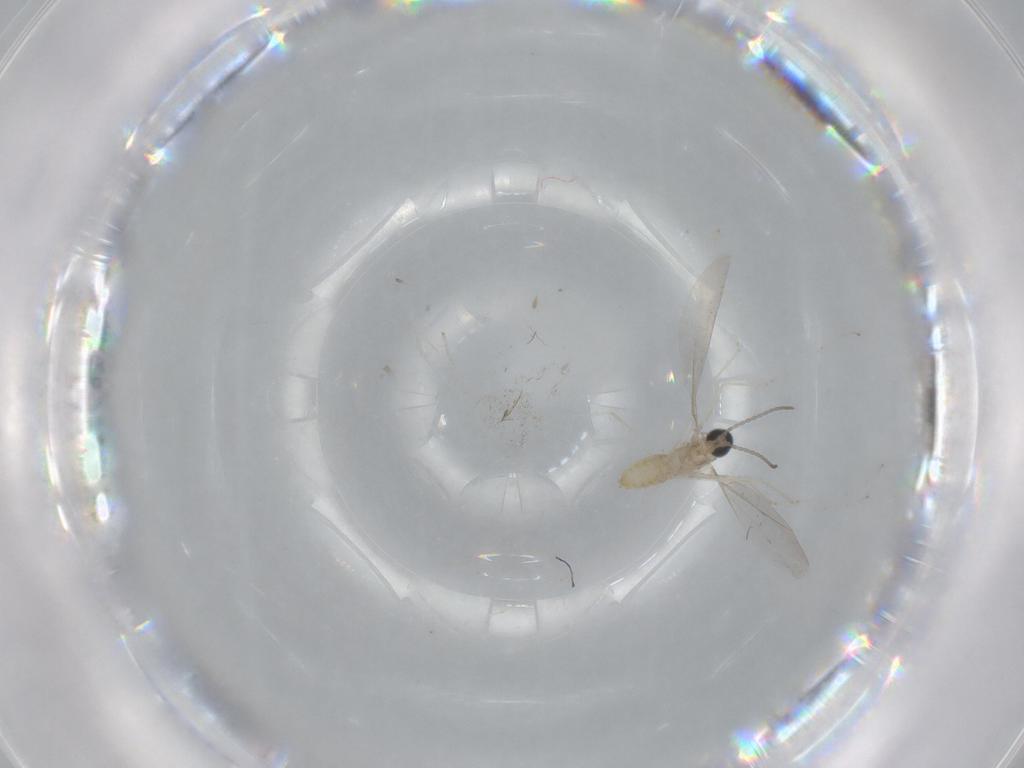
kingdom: Animalia
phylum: Arthropoda
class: Insecta
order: Diptera
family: Cecidomyiidae
